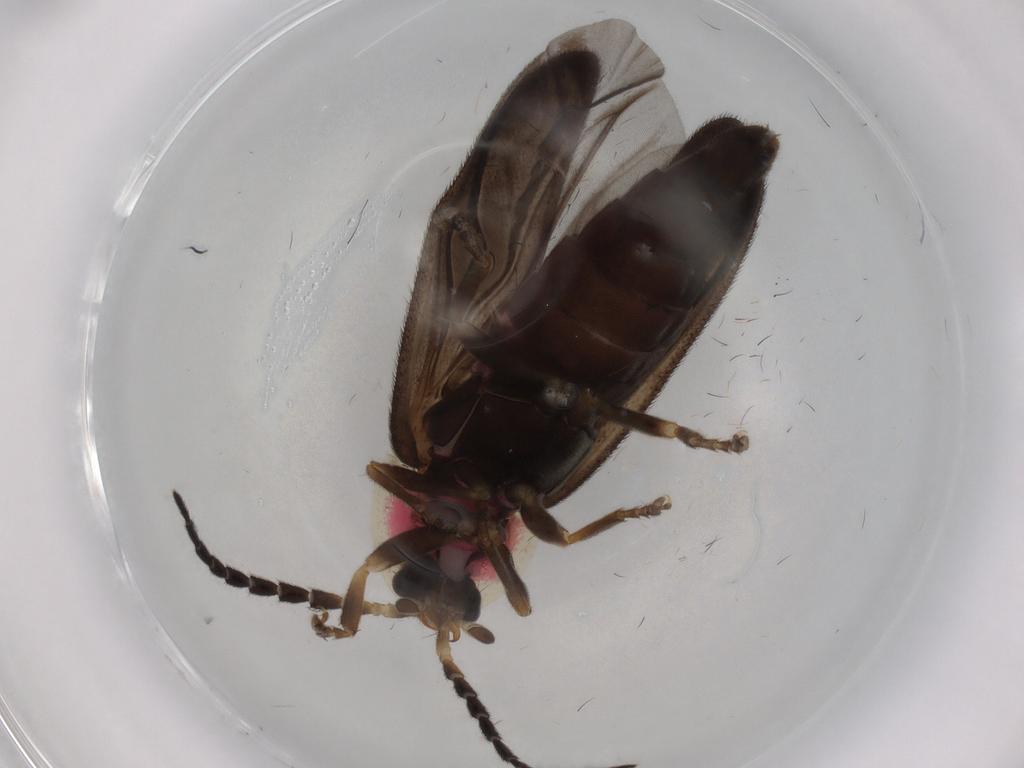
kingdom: Animalia
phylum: Arthropoda
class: Insecta
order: Coleoptera
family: Lampyridae
